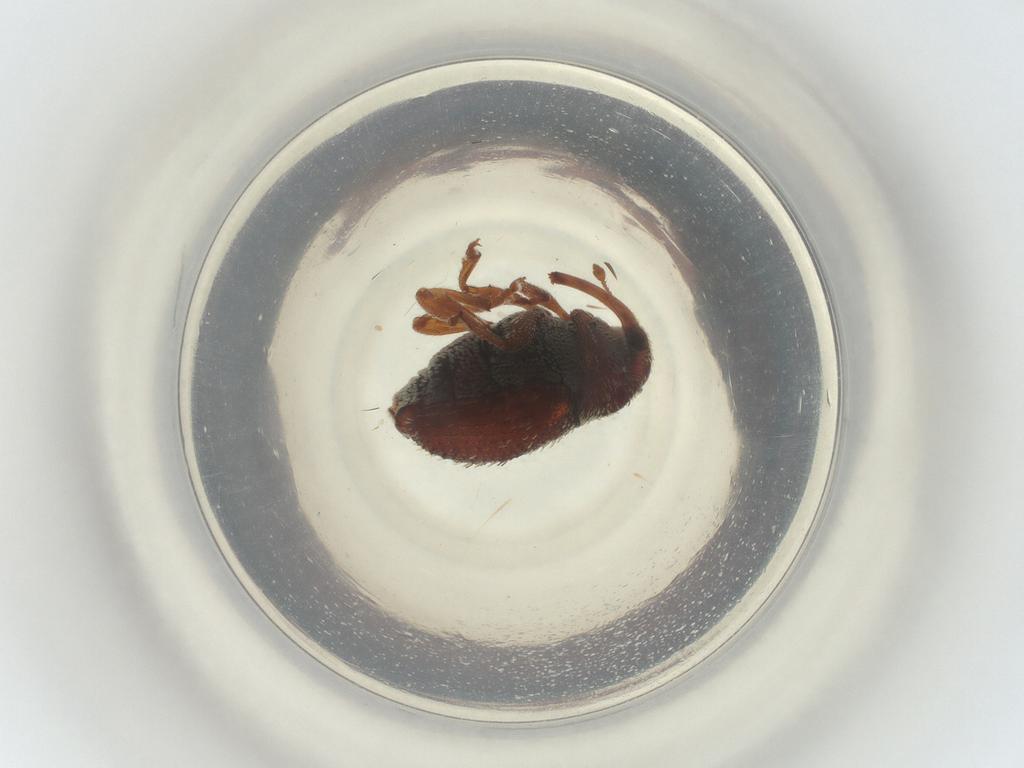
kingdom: Animalia
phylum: Arthropoda
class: Insecta
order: Coleoptera
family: Curculionidae
